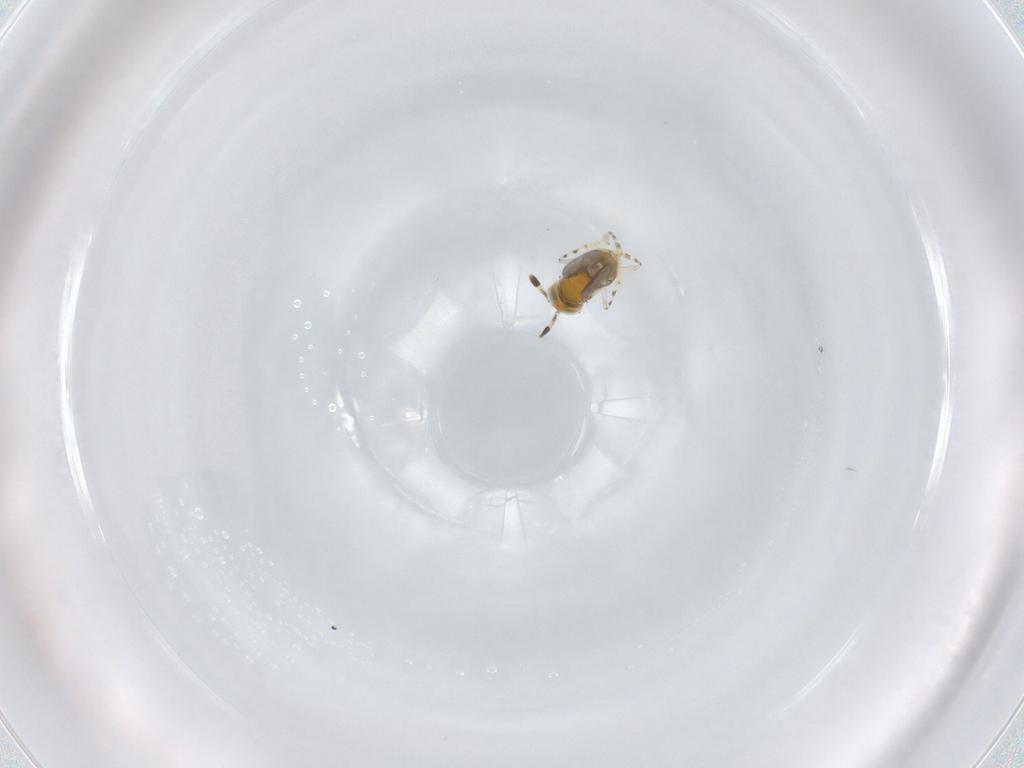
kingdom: Animalia
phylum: Arthropoda
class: Insecta
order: Hymenoptera
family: Encyrtidae
